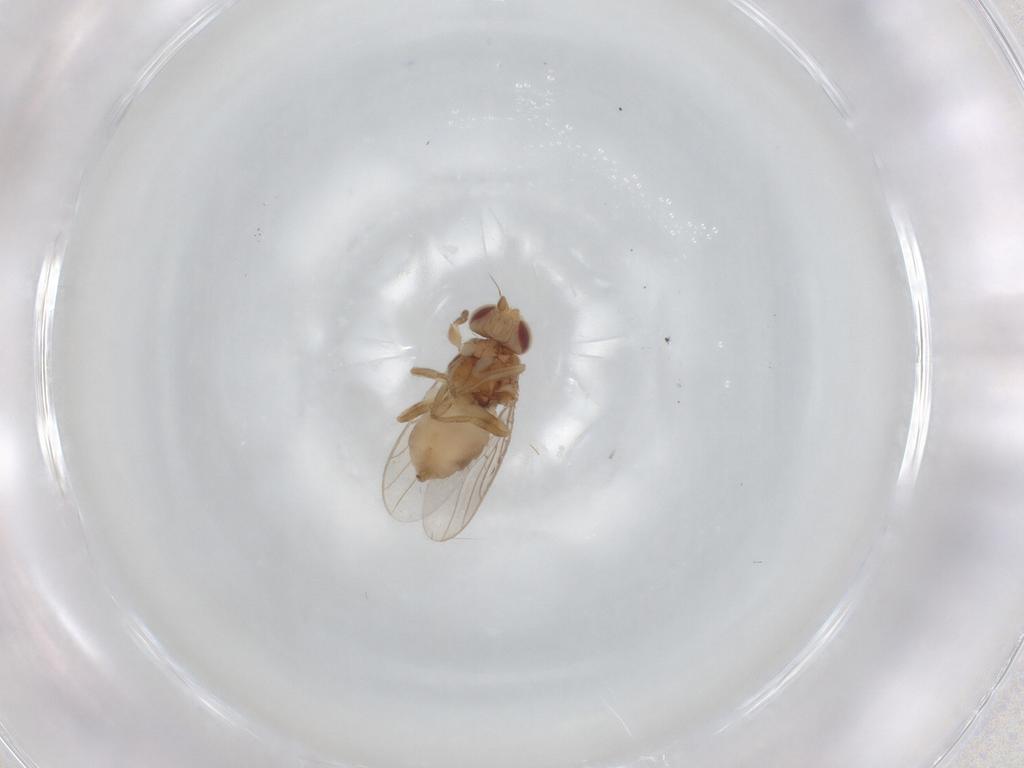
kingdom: Animalia
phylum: Arthropoda
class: Insecta
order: Diptera
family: Chloropidae
